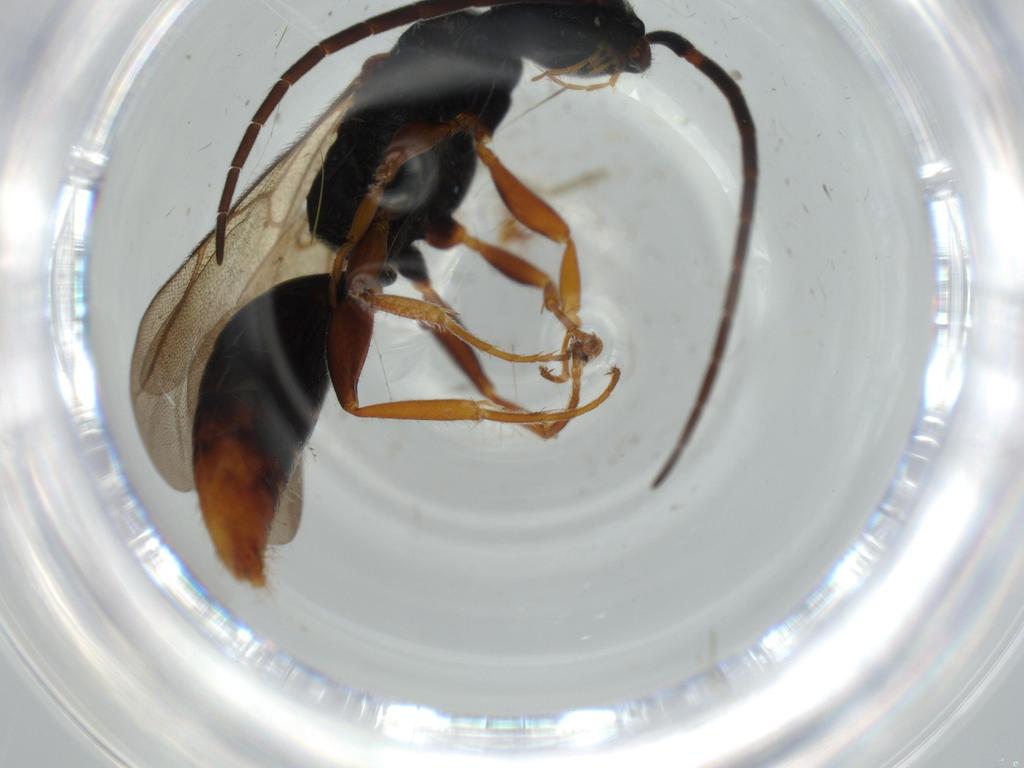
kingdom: Animalia
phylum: Arthropoda
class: Insecta
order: Hymenoptera
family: Bethylidae
